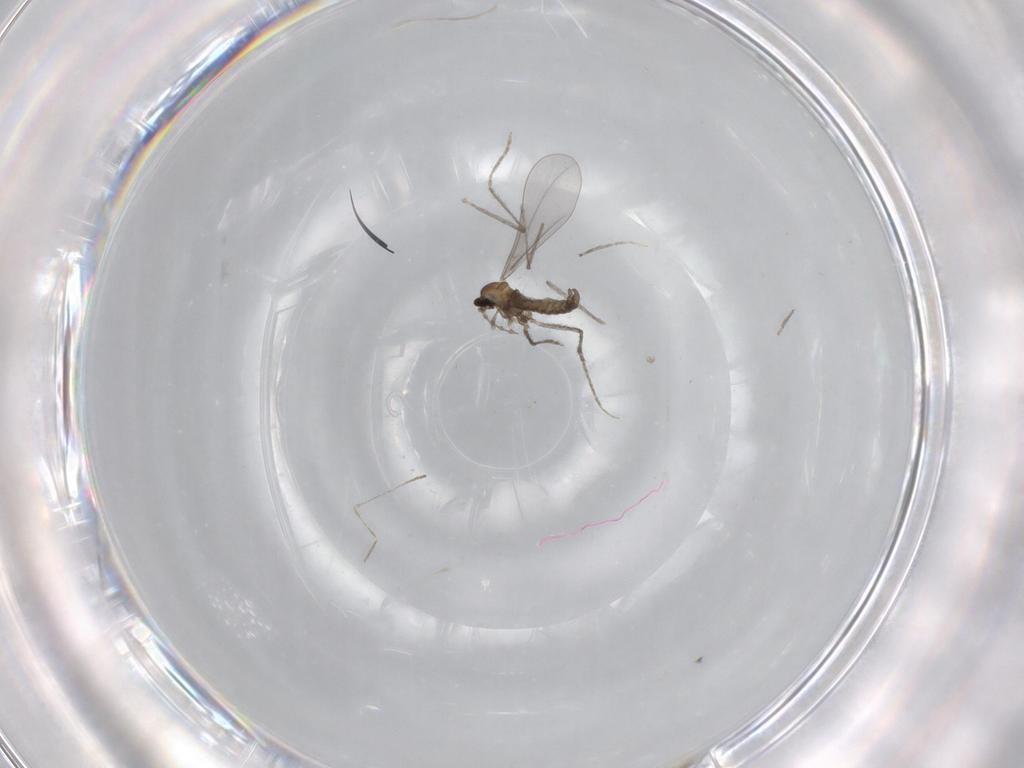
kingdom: Animalia
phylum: Arthropoda
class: Insecta
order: Diptera
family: Cecidomyiidae
